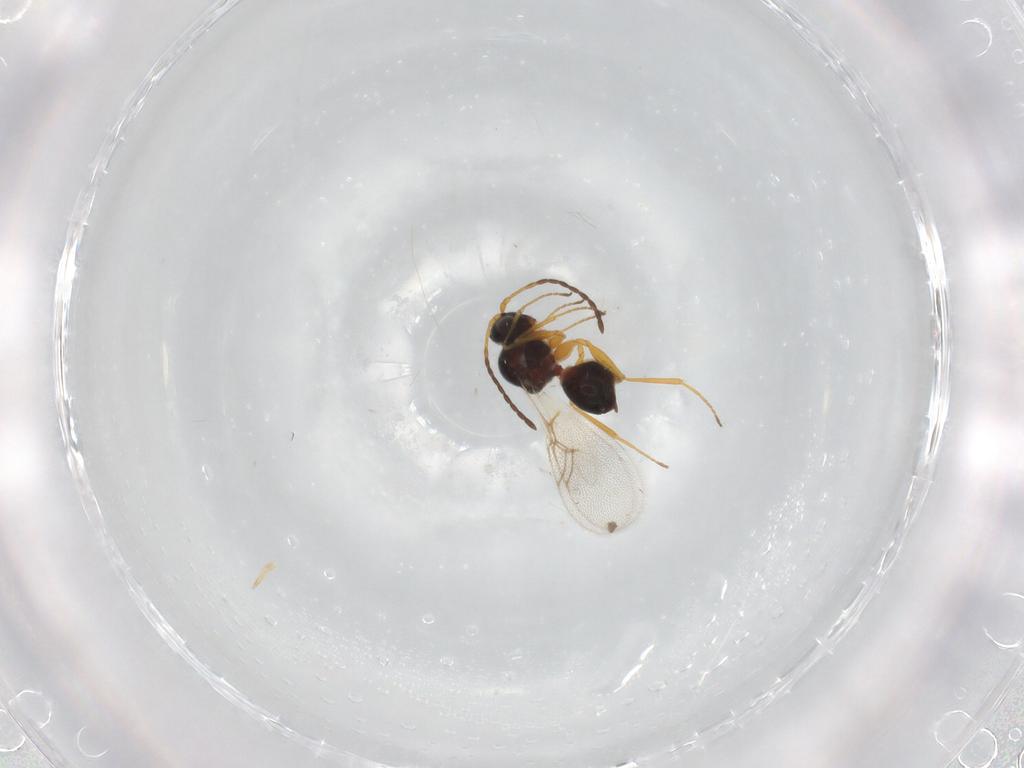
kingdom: Animalia
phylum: Arthropoda
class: Insecta
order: Hymenoptera
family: Figitidae
